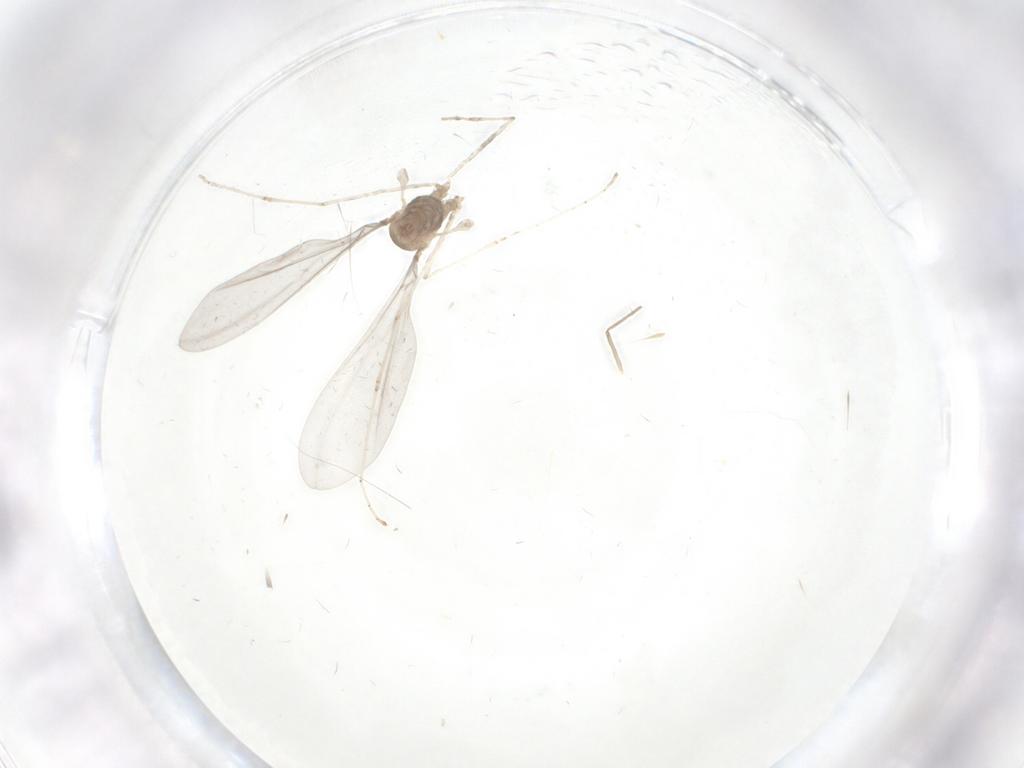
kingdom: Animalia
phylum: Arthropoda
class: Insecta
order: Diptera
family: Cecidomyiidae
